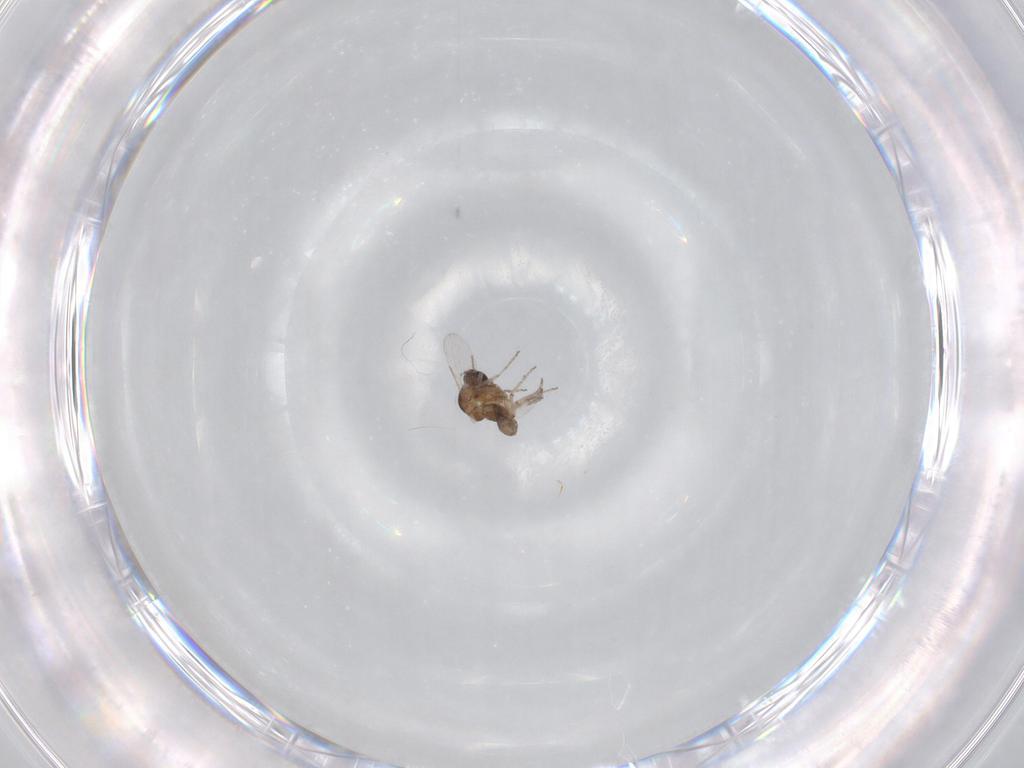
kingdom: Animalia
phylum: Arthropoda
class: Insecta
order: Diptera
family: Ceratopogonidae
